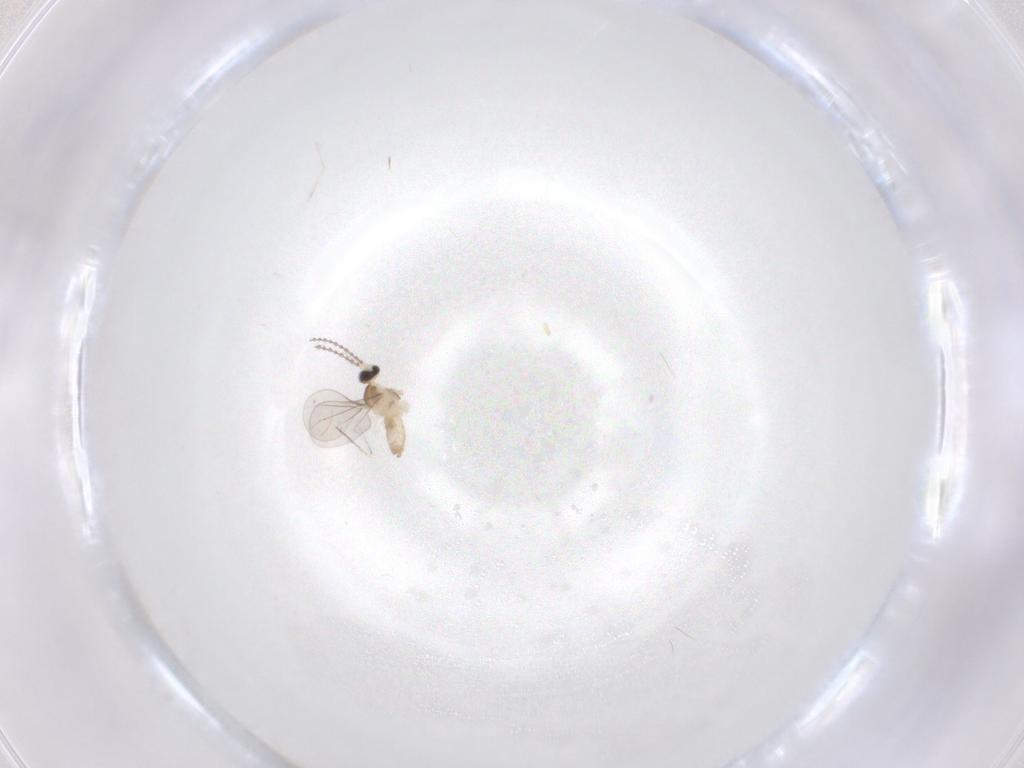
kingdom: Animalia
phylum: Arthropoda
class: Insecta
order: Diptera
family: Cecidomyiidae
